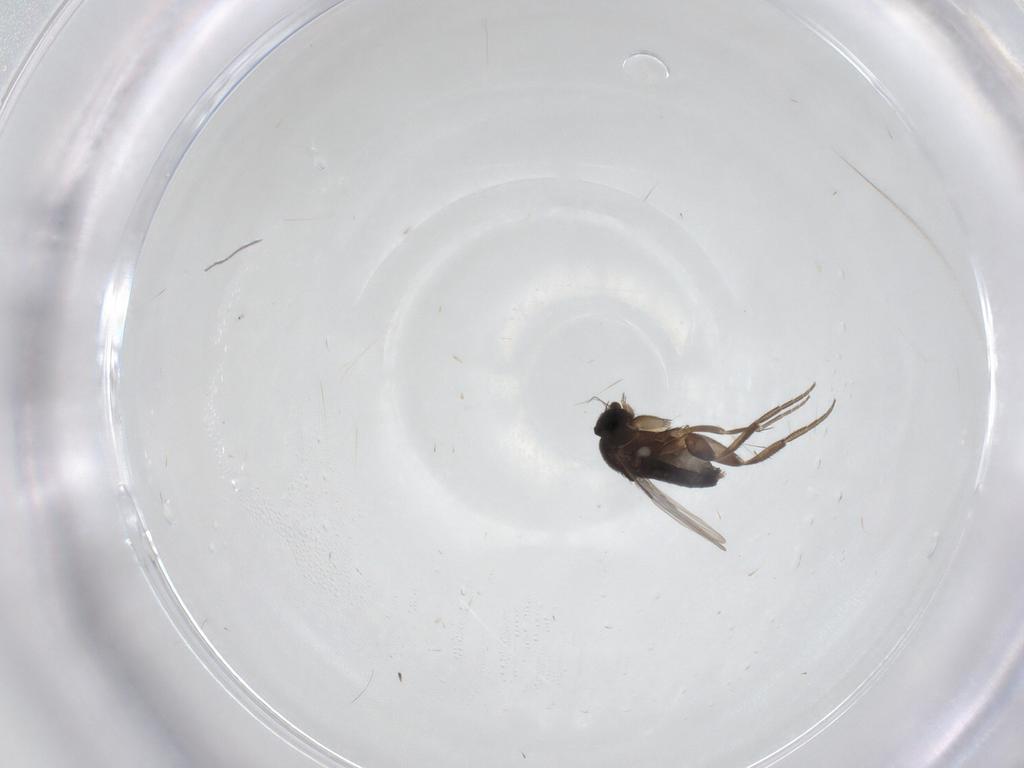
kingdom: Animalia
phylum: Arthropoda
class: Insecta
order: Diptera
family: Phoridae
